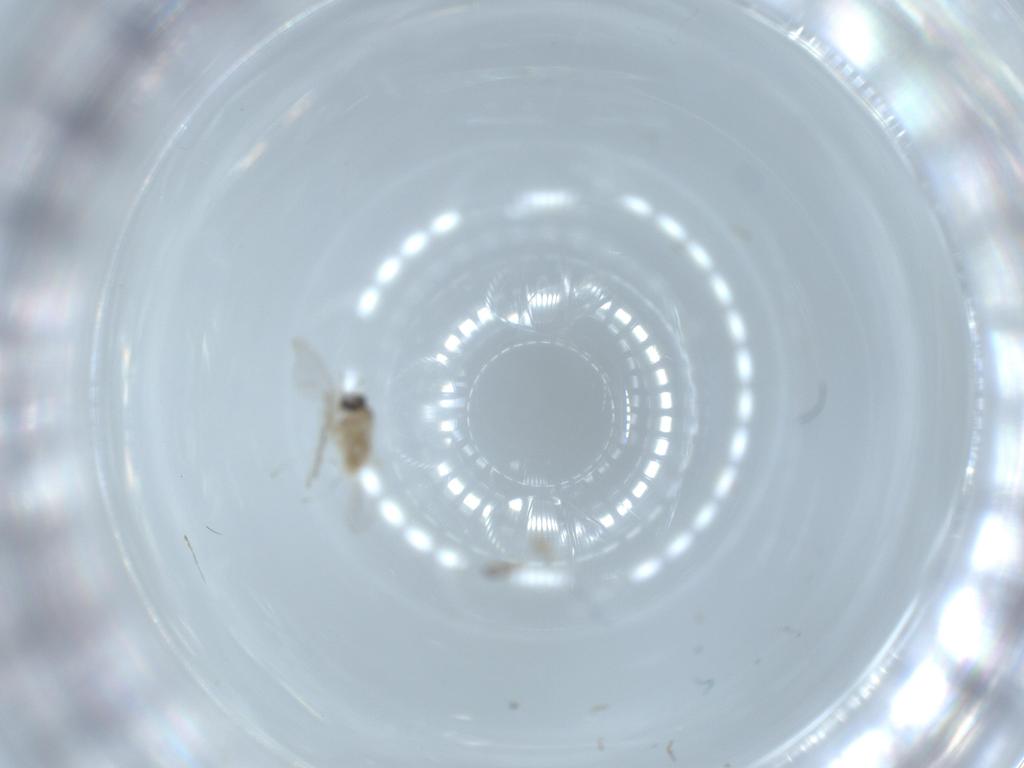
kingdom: Animalia
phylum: Arthropoda
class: Insecta
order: Diptera
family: Cecidomyiidae
